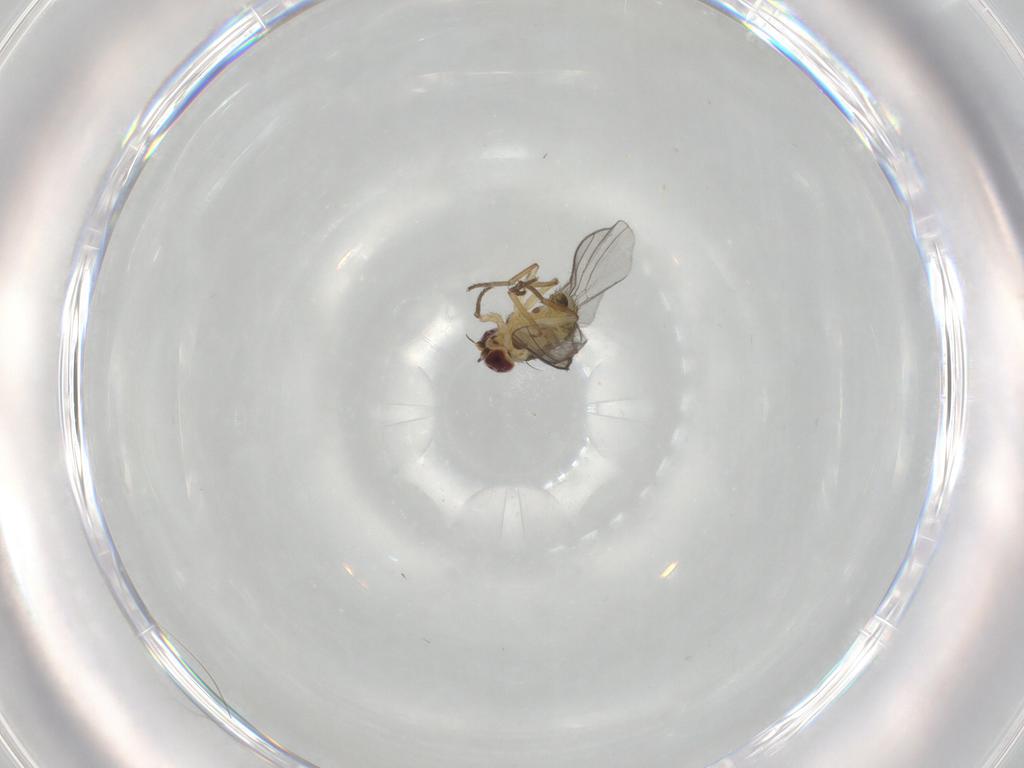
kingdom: Animalia
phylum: Arthropoda
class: Insecta
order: Diptera
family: Agromyzidae
